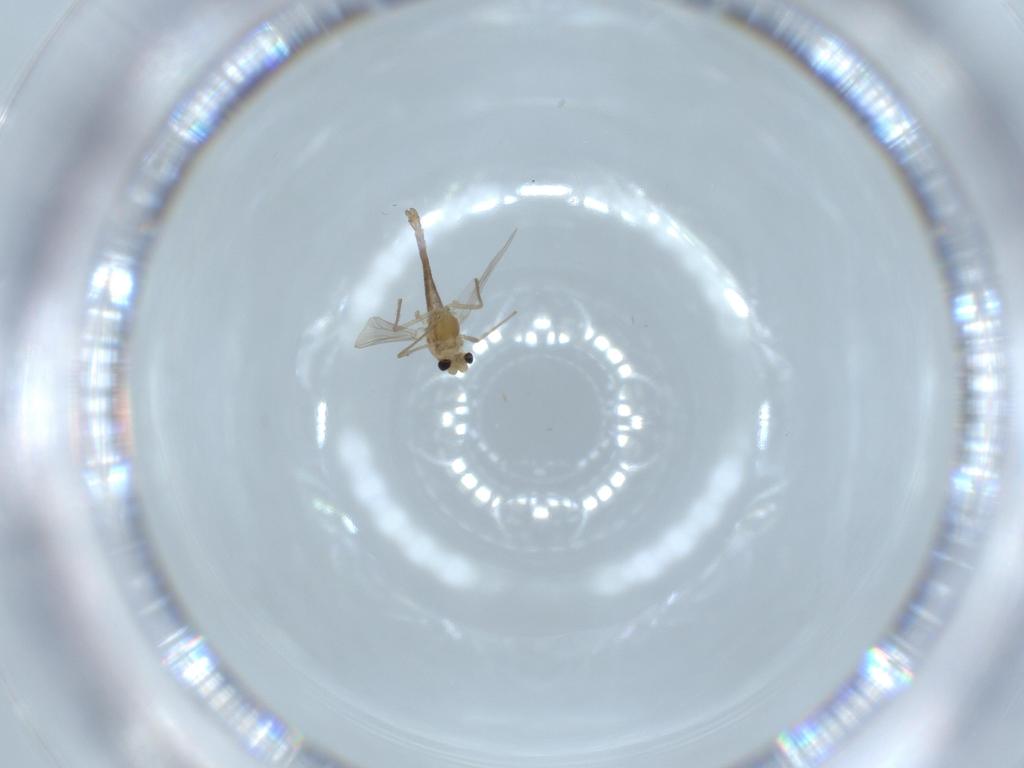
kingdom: Animalia
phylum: Arthropoda
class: Insecta
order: Diptera
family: Chironomidae
